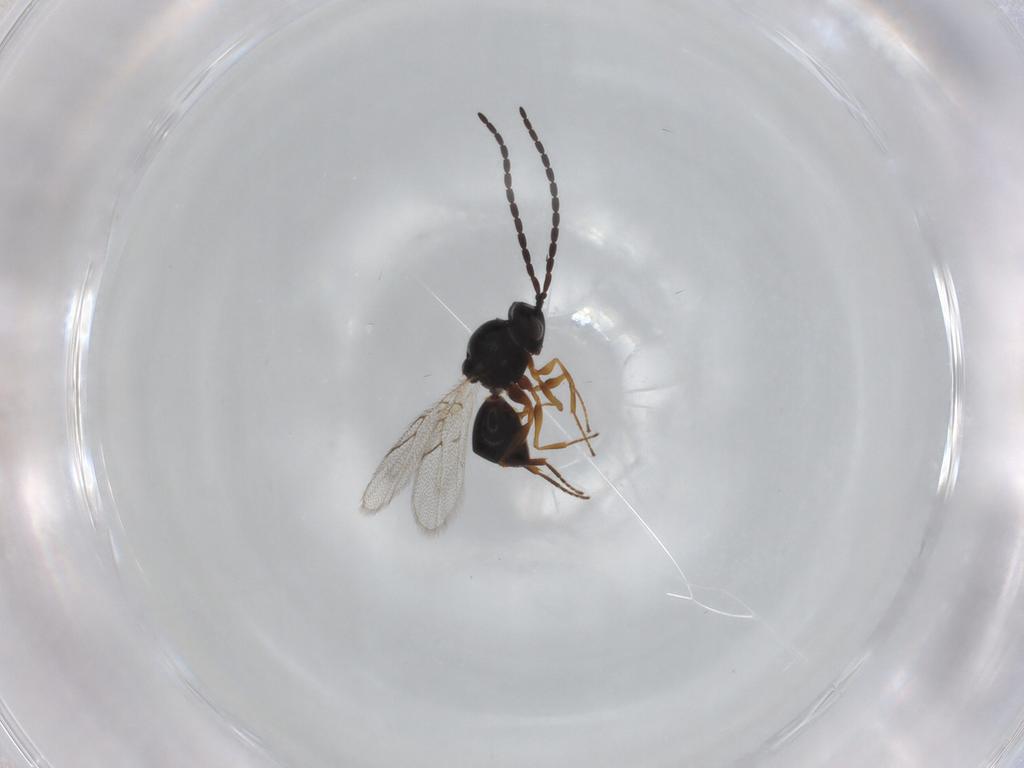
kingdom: Animalia
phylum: Arthropoda
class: Insecta
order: Hymenoptera
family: Figitidae
